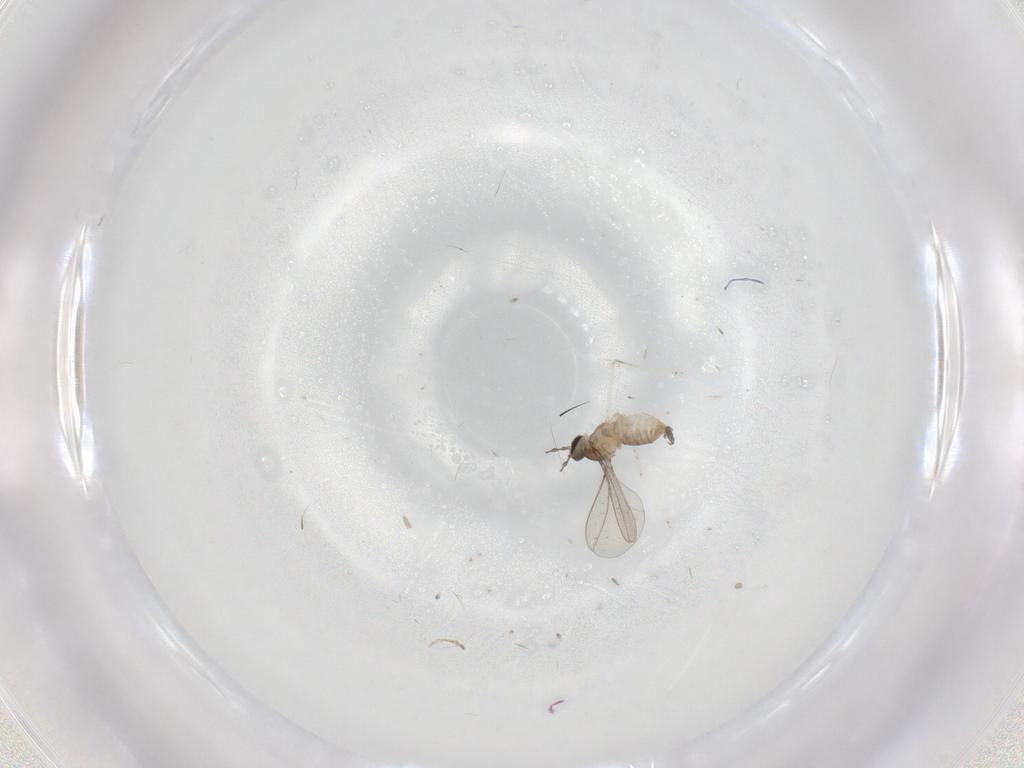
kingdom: Animalia
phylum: Arthropoda
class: Insecta
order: Diptera
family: Cecidomyiidae
